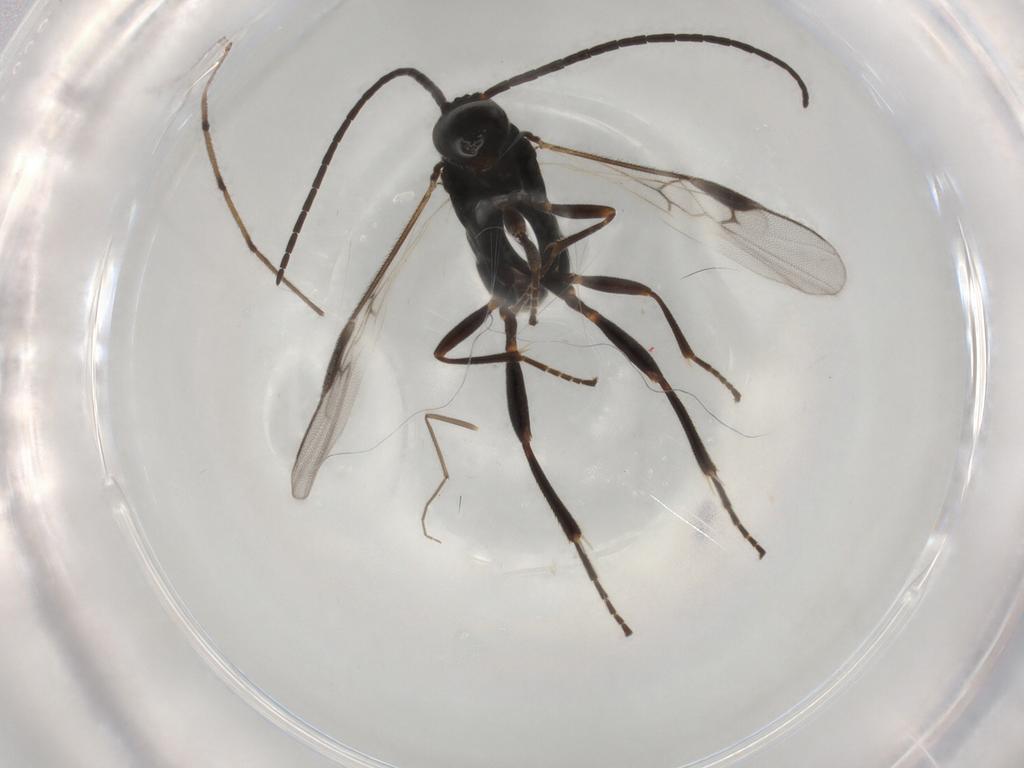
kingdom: Animalia
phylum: Arthropoda
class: Insecta
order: Hymenoptera
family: Braconidae
